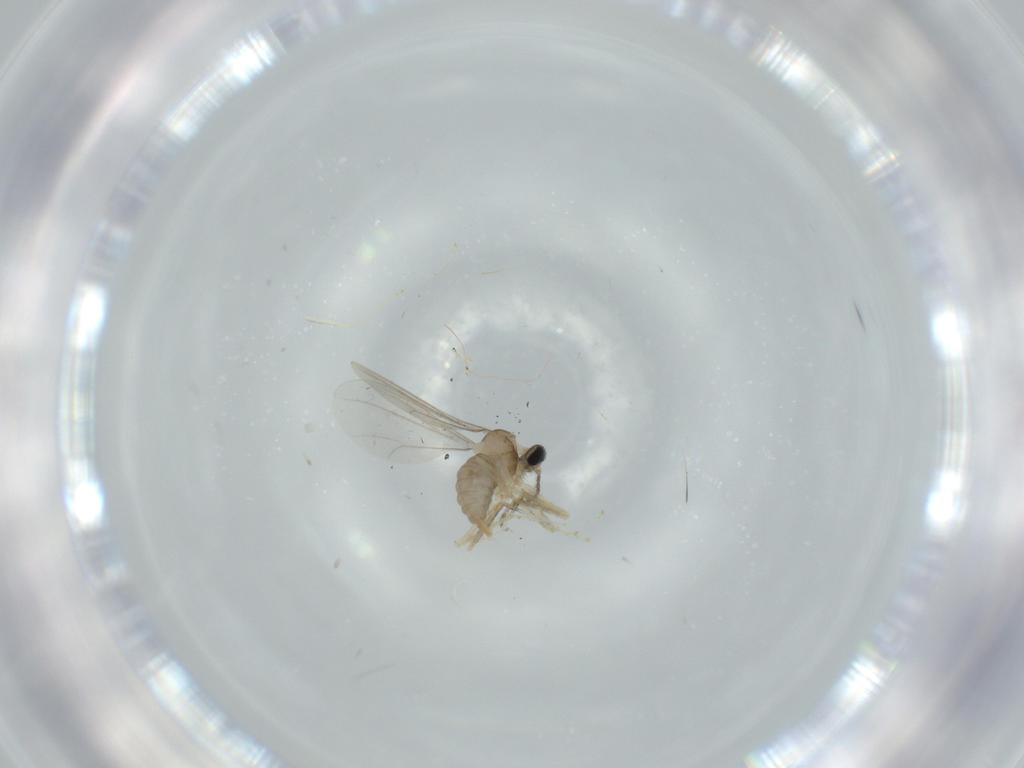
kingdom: Animalia
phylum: Arthropoda
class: Insecta
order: Diptera
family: Cecidomyiidae
